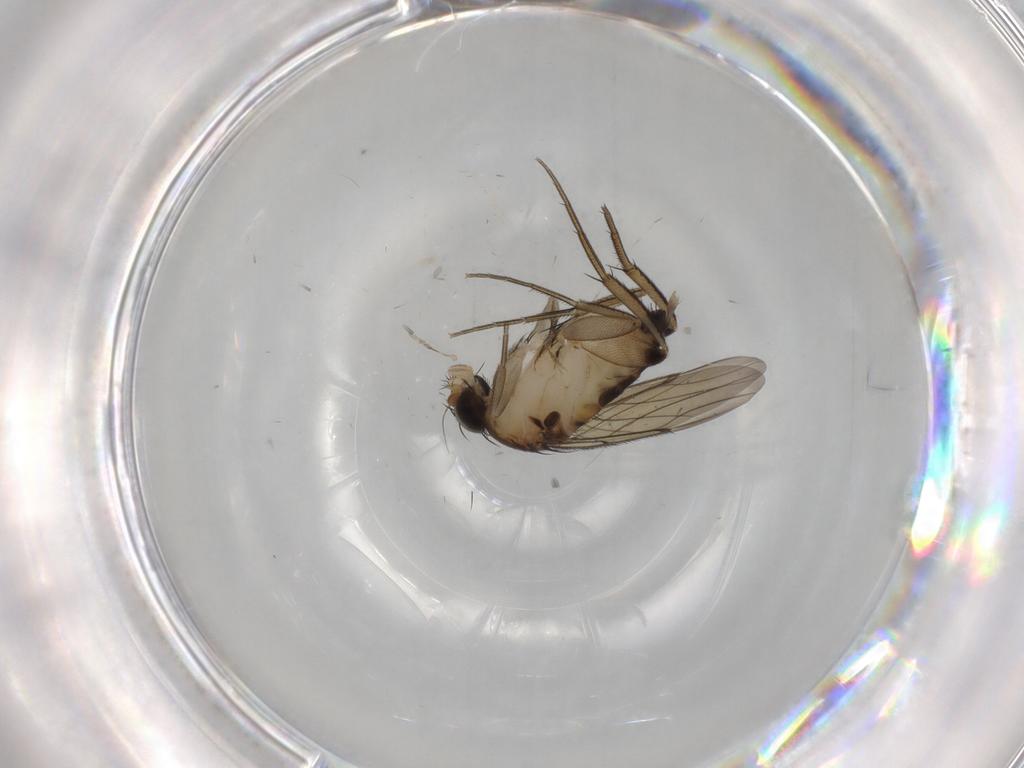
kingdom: Animalia
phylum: Arthropoda
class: Insecta
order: Diptera
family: Phoridae
